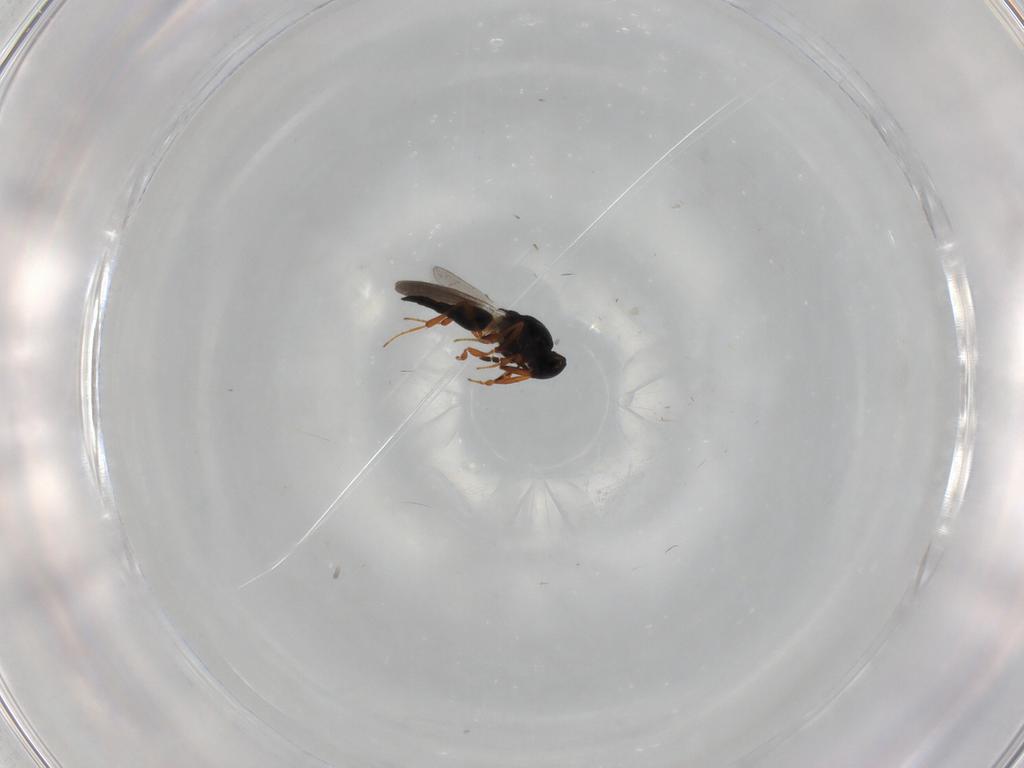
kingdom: Animalia
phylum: Arthropoda
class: Insecta
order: Hymenoptera
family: Platygastridae
